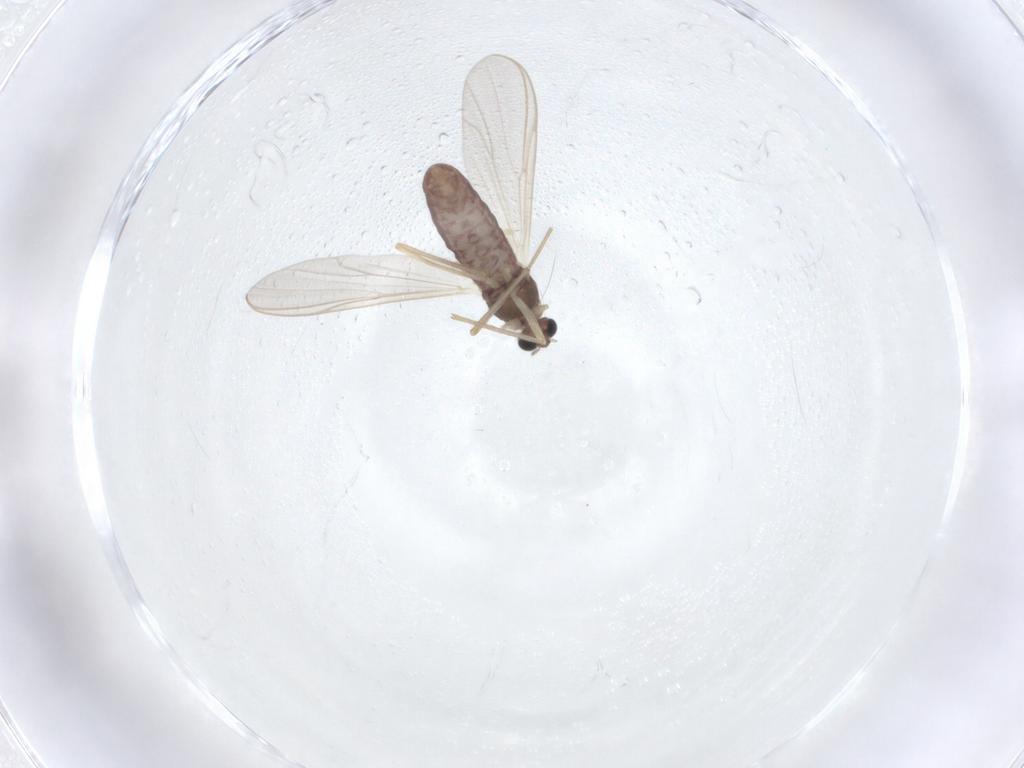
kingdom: Animalia
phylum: Arthropoda
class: Insecta
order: Diptera
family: Chironomidae
